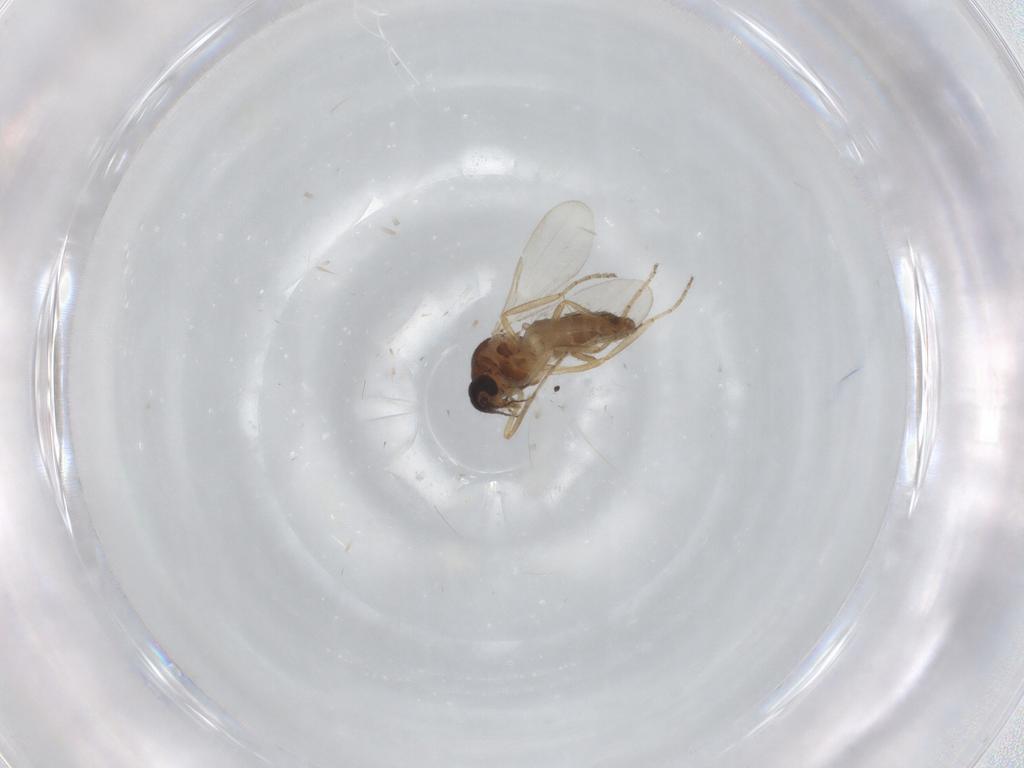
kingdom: Animalia
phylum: Arthropoda
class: Insecta
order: Diptera
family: Ceratopogonidae
